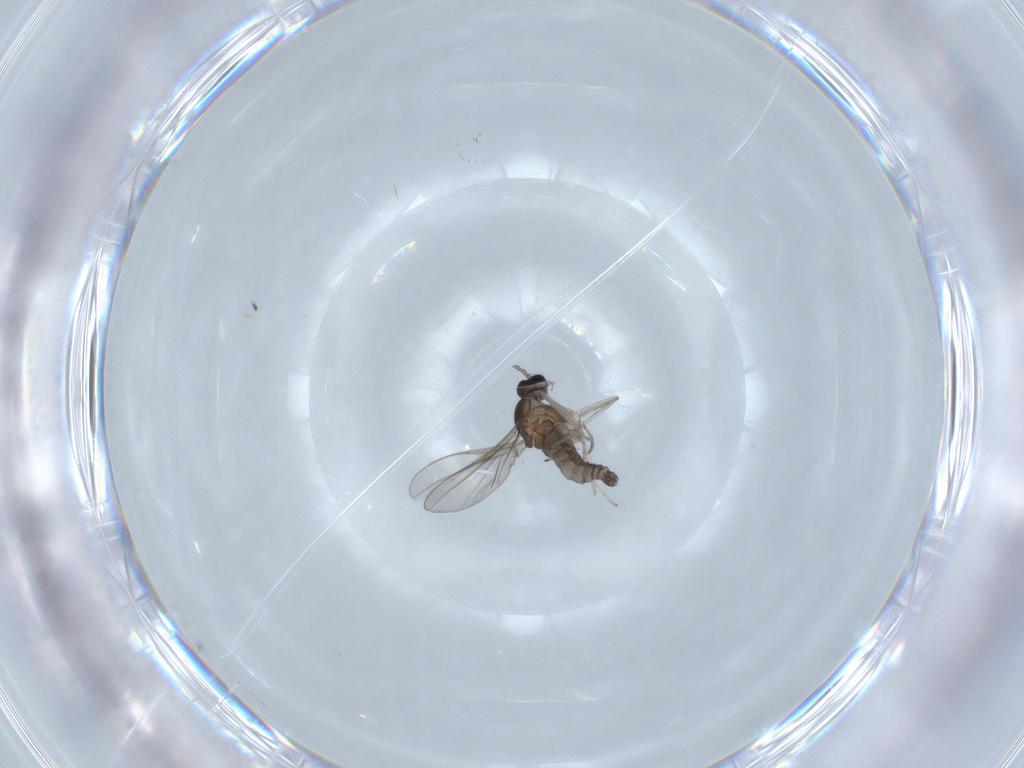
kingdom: Animalia
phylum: Arthropoda
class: Insecta
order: Diptera
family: Cecidomyiidae
